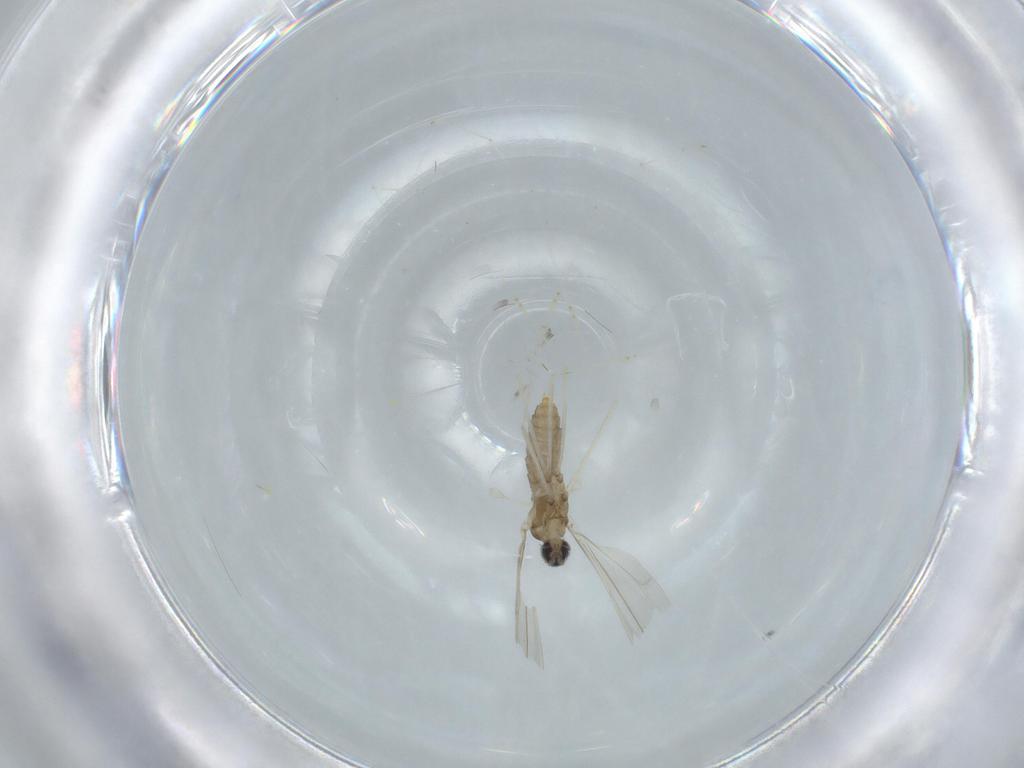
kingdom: Animalia
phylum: Arthropoda
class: Insecta
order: Diptera
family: Cecidomyiidae
